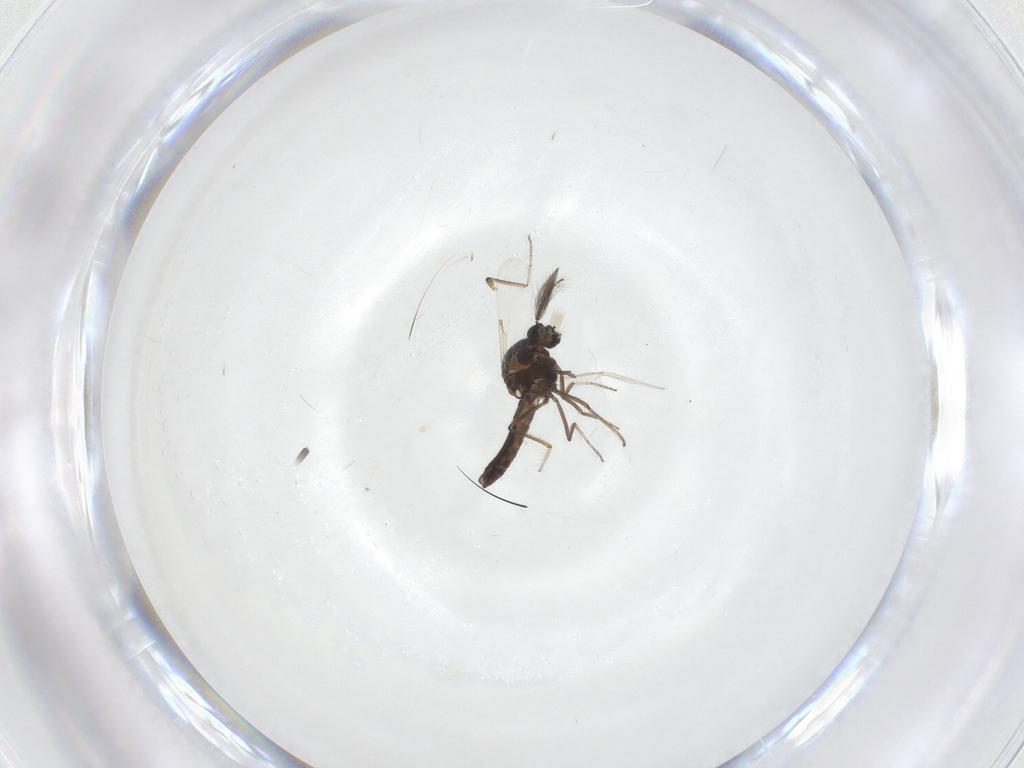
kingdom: Animalia
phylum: Arthropoda
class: Insecta
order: Diptera
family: Ceratopogonidae
